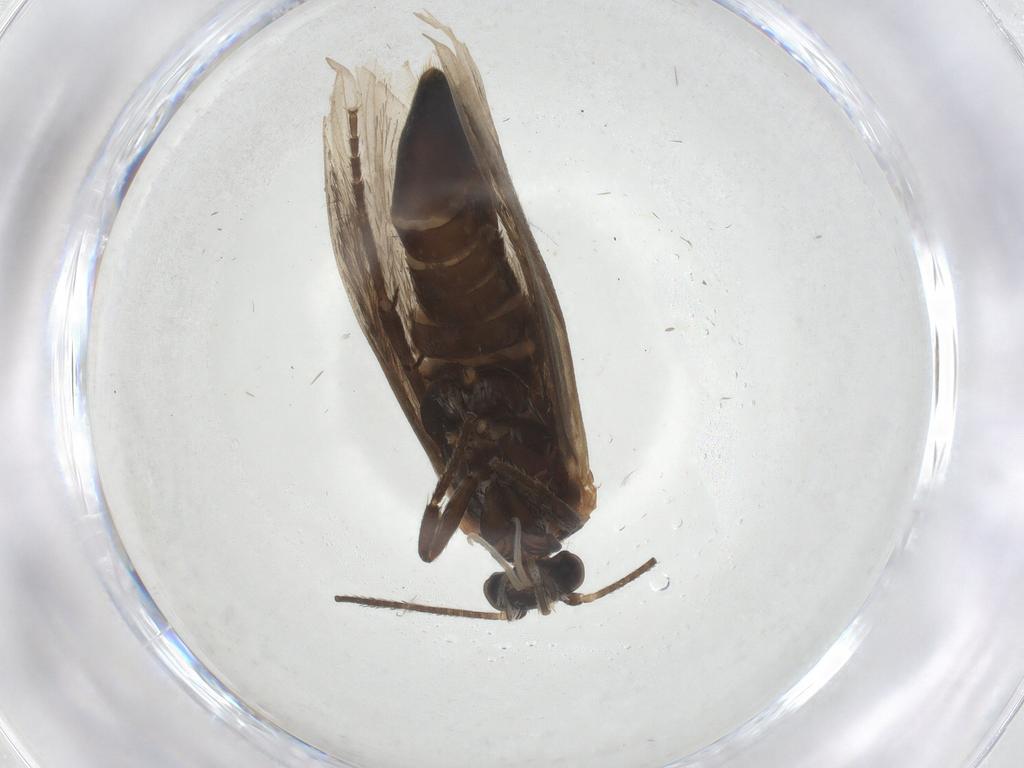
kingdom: Animalia
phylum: Arthropoda
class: Insecta
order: Lepidoptera
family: Prodoxidae
